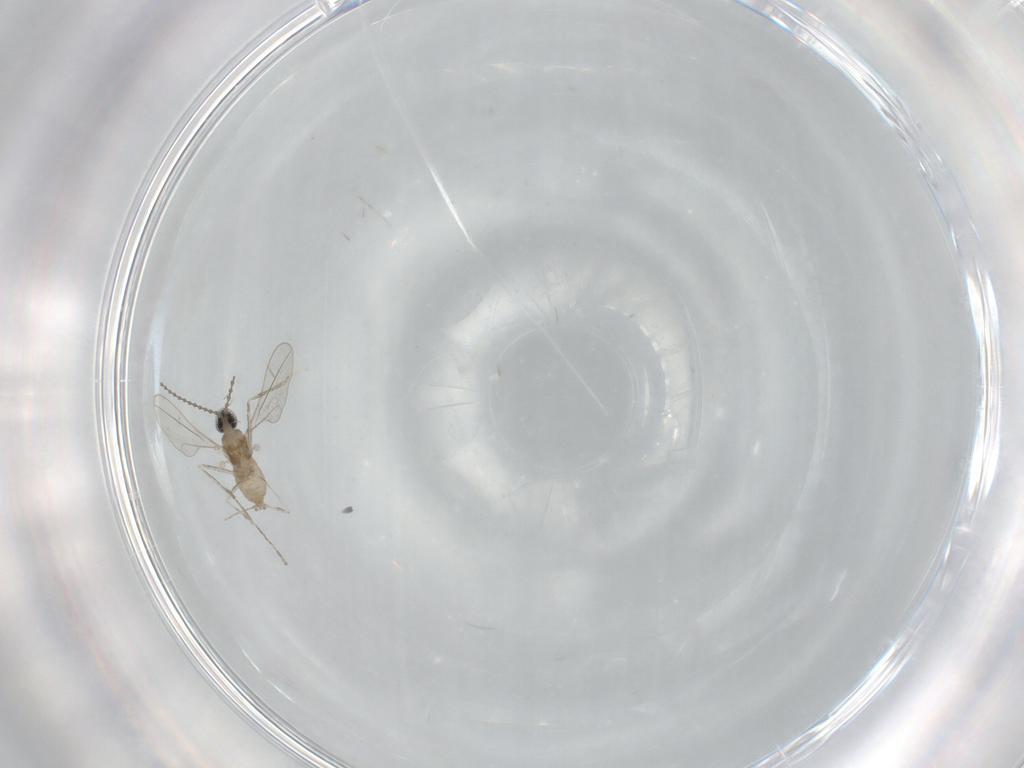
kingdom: Animalia
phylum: Arthropoda
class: Insecta
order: Diptera
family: Cecidomyiidae
